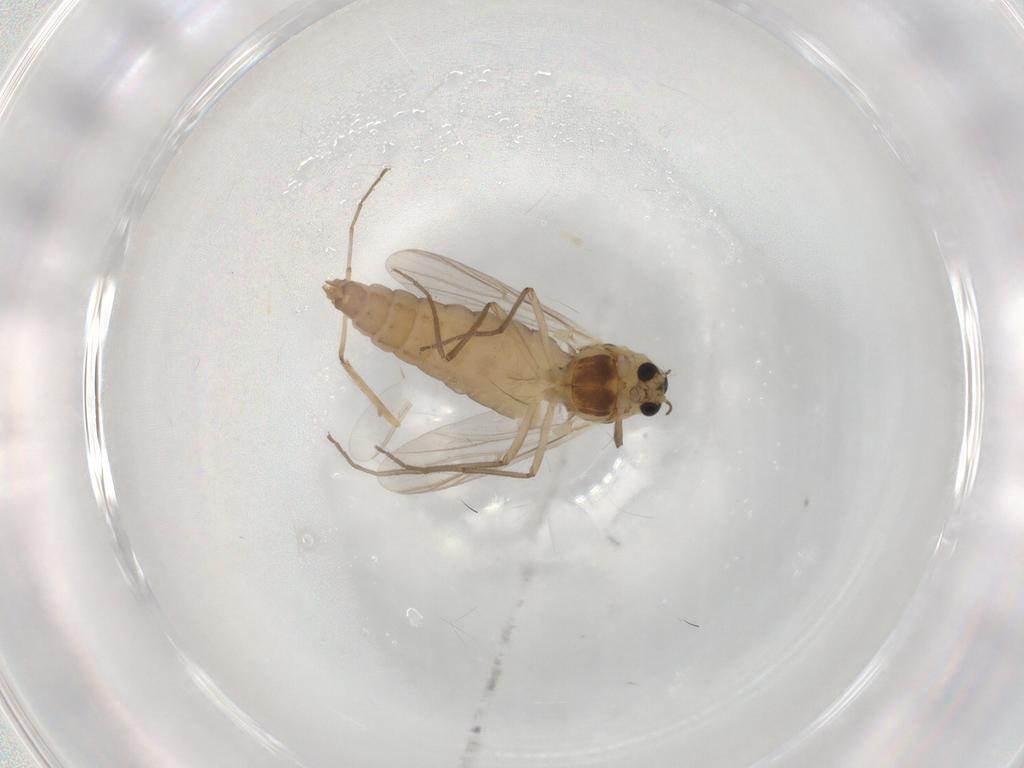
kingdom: Animalia
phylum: Arthropoda
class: Insecta
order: Diptera
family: Chironomidae
